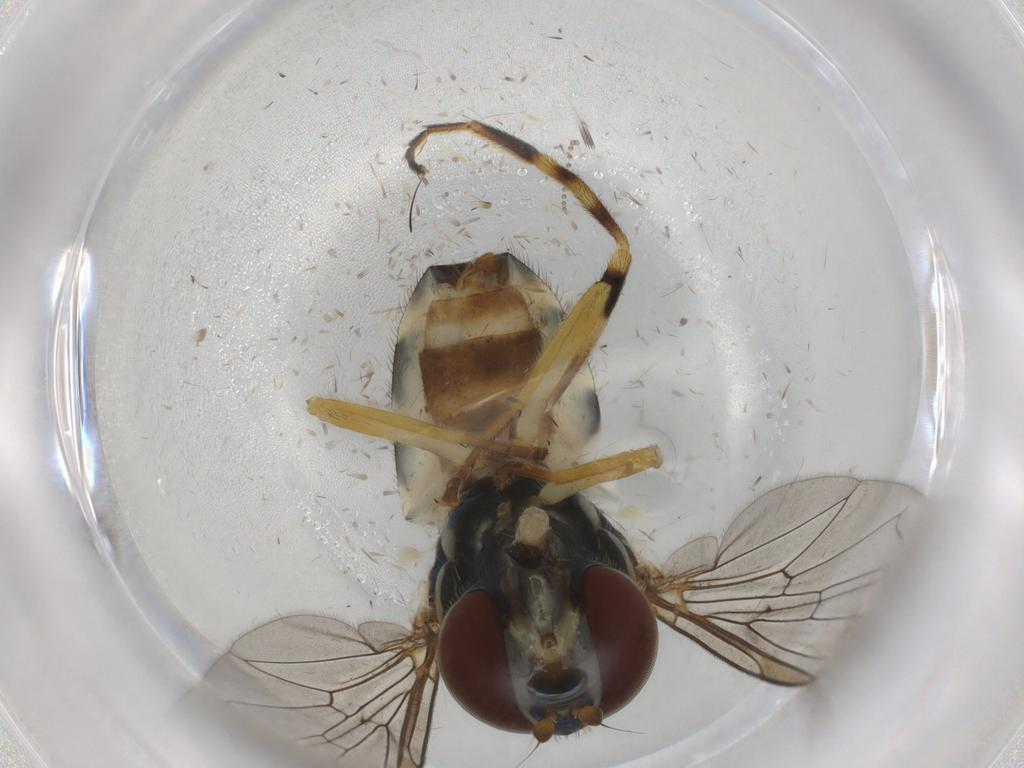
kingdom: Animalia
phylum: Arthropoda
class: Insecta
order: Diptera
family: Syrphidae
